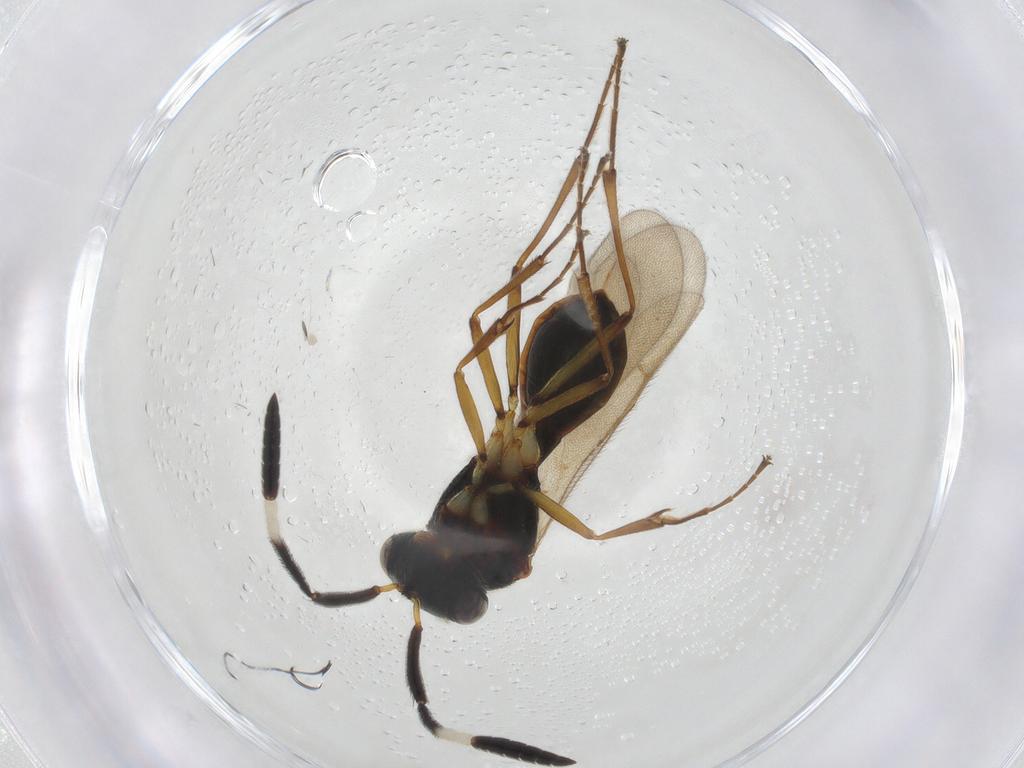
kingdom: Animalia
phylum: Arthropoda
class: Insecta
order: Hymenoptera
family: Scelionidae
